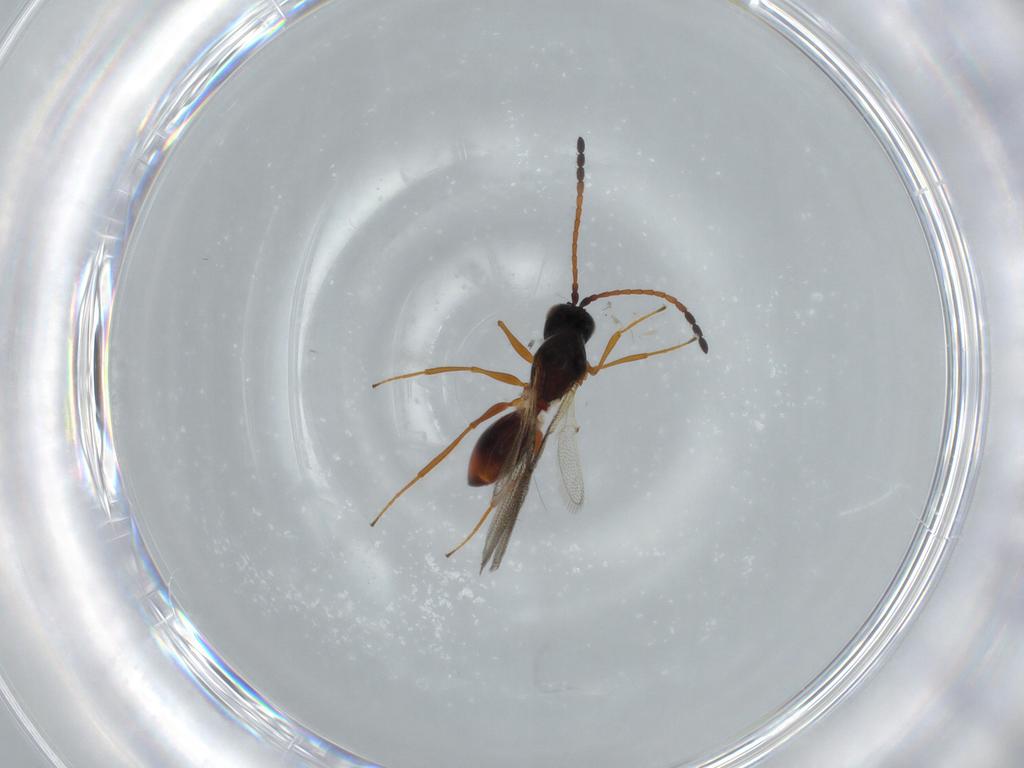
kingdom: Animalia
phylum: Arthropoda
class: Insecta
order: Hymenoptera
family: Figitidae
